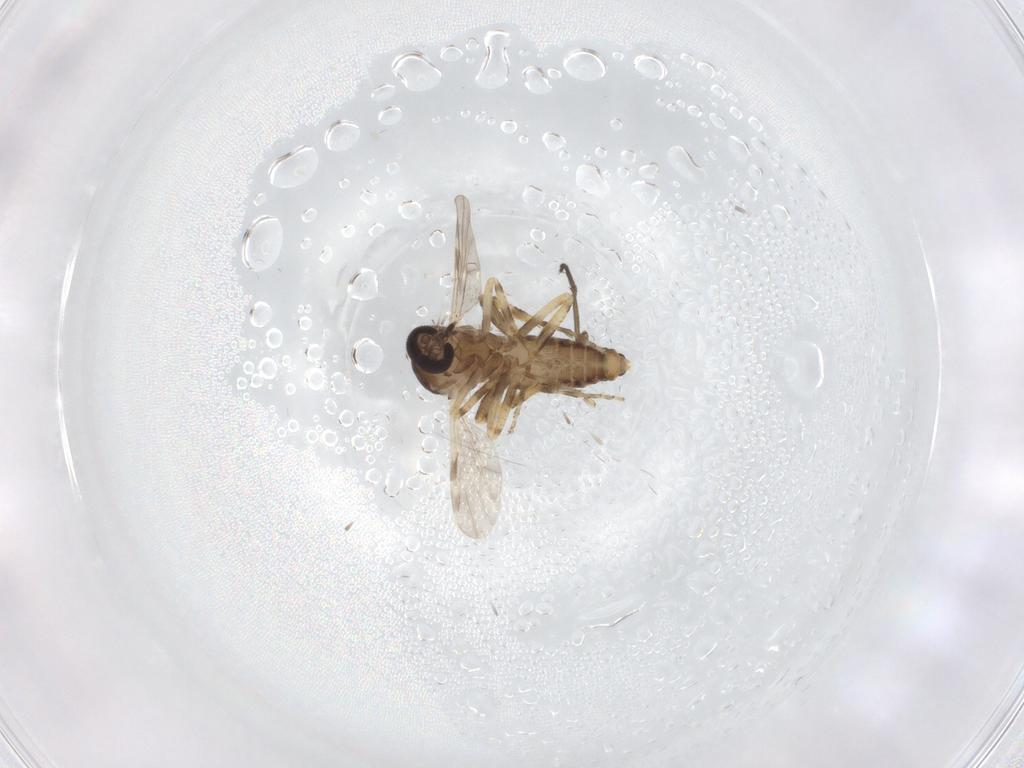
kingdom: Animalia
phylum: Arthropoda
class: Insecta
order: Diptera
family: Ceratopogonidae
